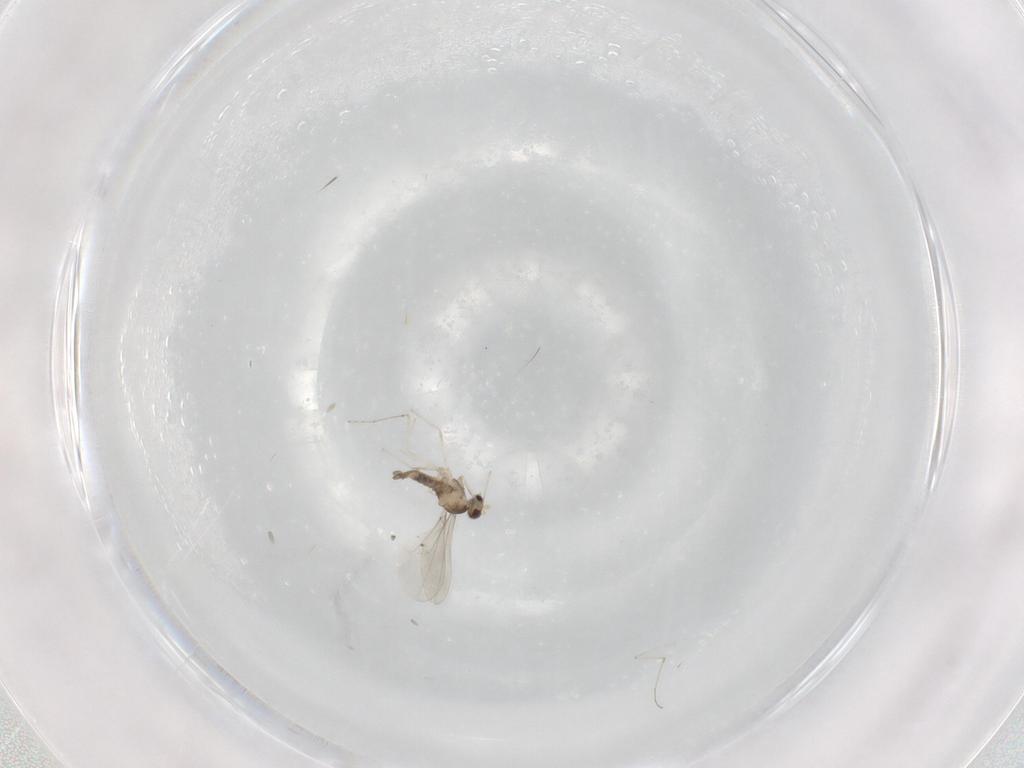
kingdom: Animalia
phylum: Arthropoda
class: Insecta
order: Diptera
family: Cecidomyiidae
